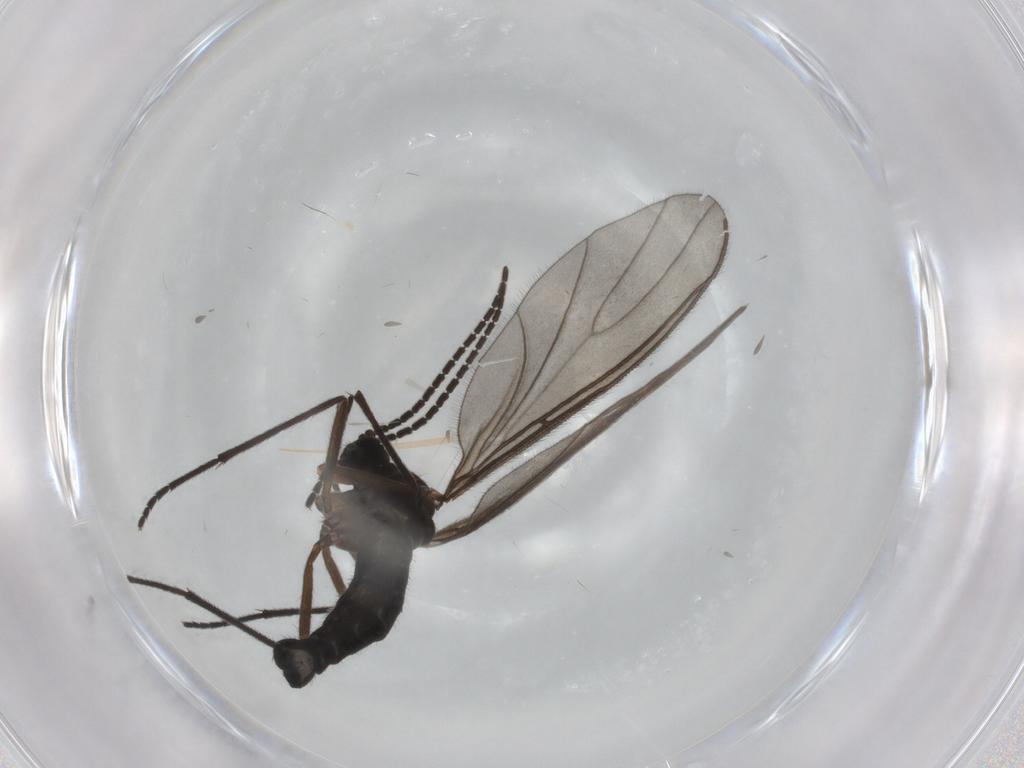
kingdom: Animalia
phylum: Arthropoda
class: Insecta
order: Diptera
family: Sciaridae
